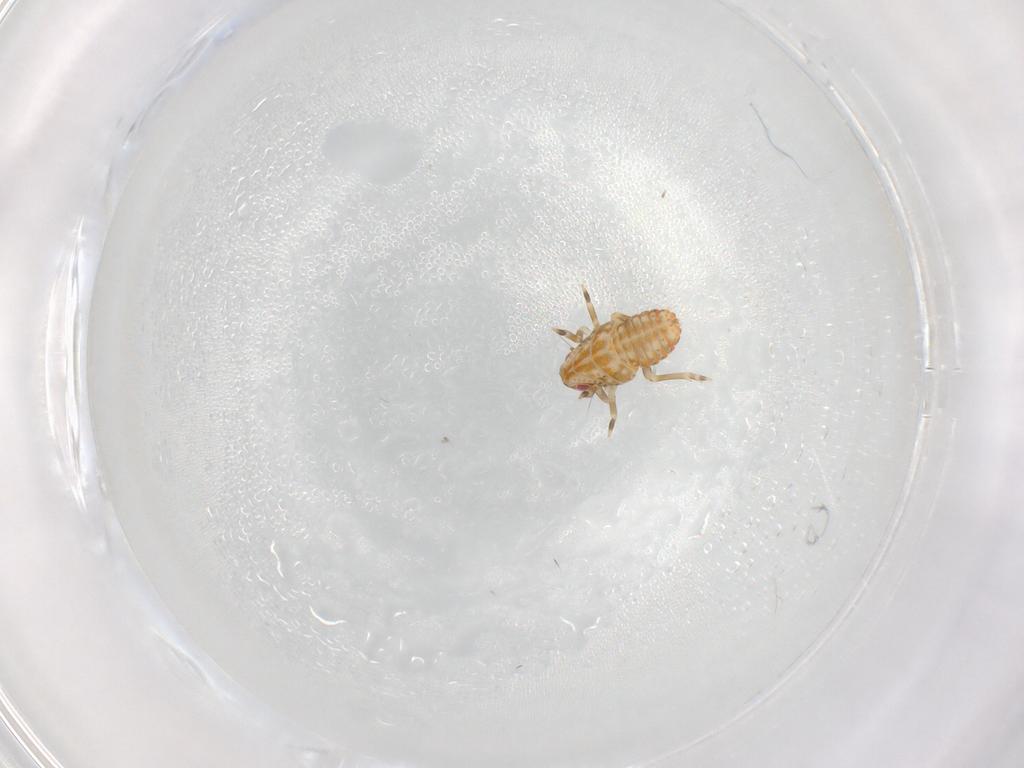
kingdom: Animalia
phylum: Arthropoda
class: Insecta
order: Hemiptera
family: Flatidae
